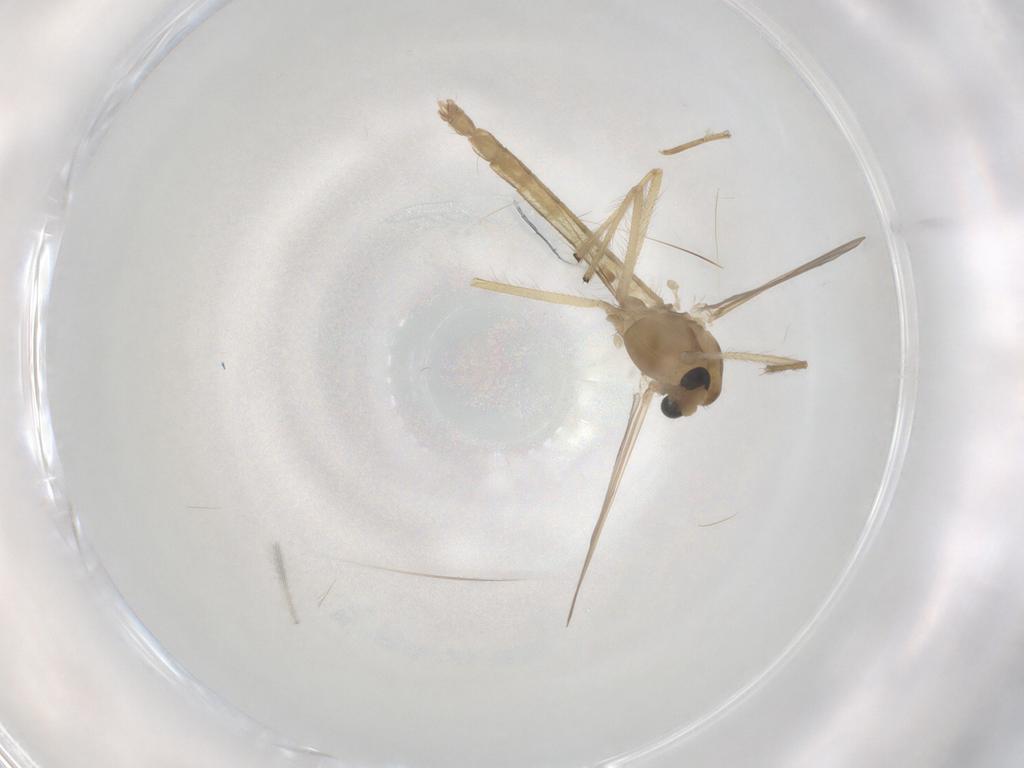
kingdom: Animalia
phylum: Arthropoda
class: Insecta
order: Diptera
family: Chironomidae
